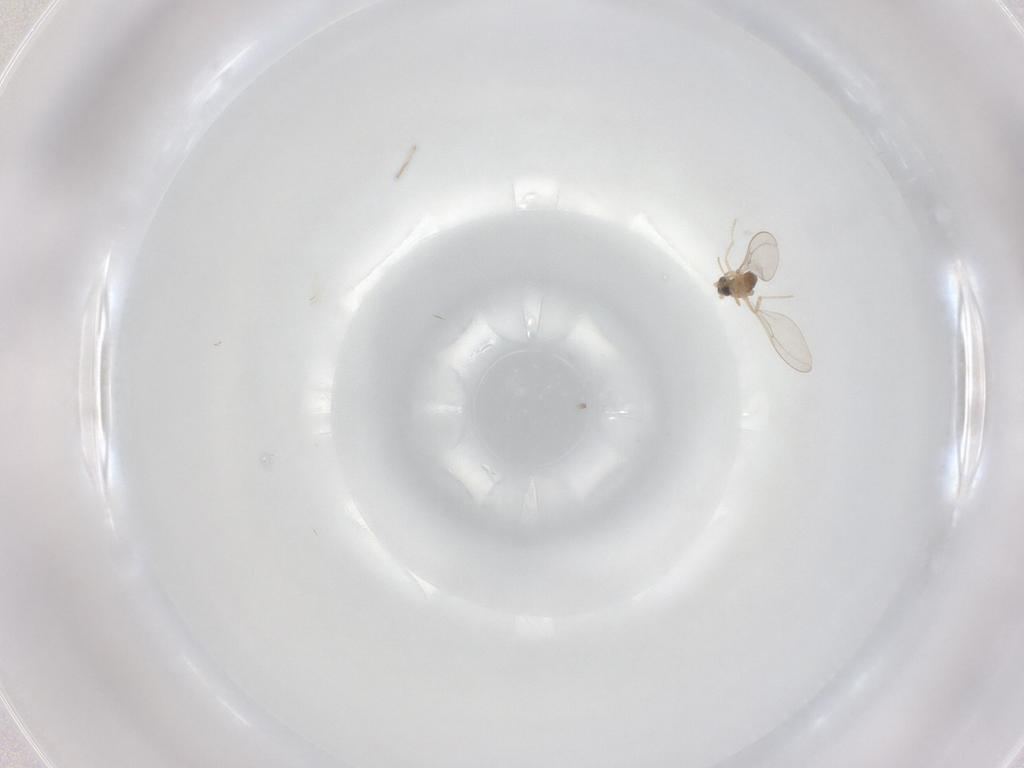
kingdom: Animalia
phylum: Arthropoda
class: Insecta
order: Diptera
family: Cecidomyiidae
